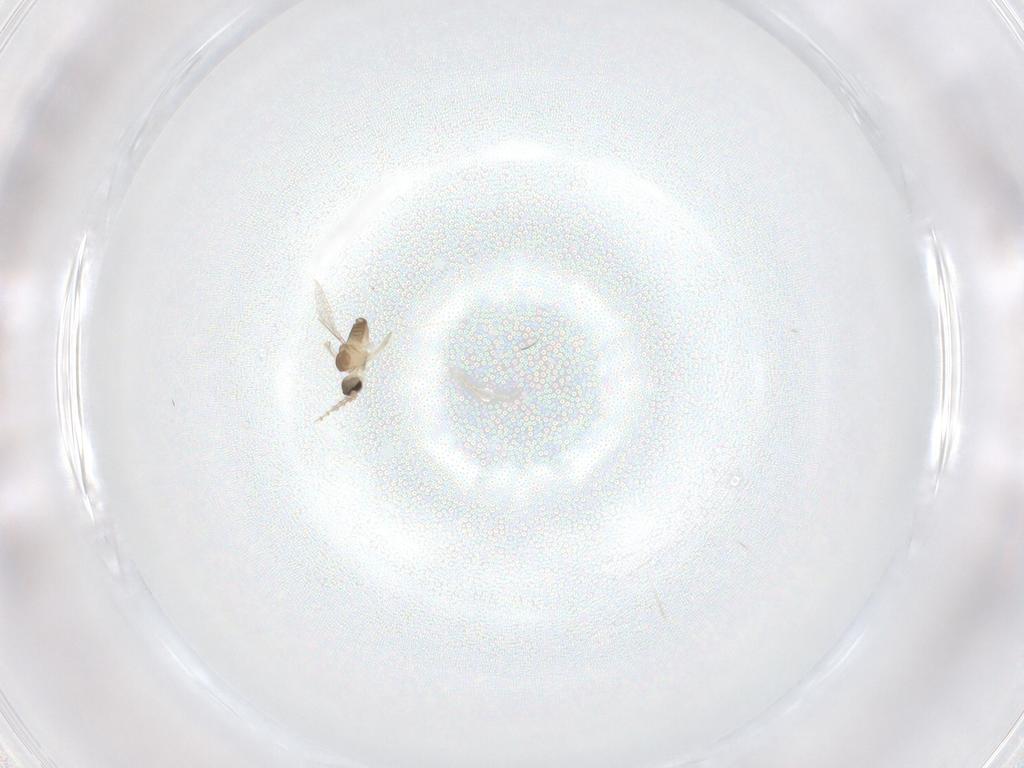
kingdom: Animalia
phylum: Arthropoda
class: Insecta
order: Diptera
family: Cecidomyiidae
